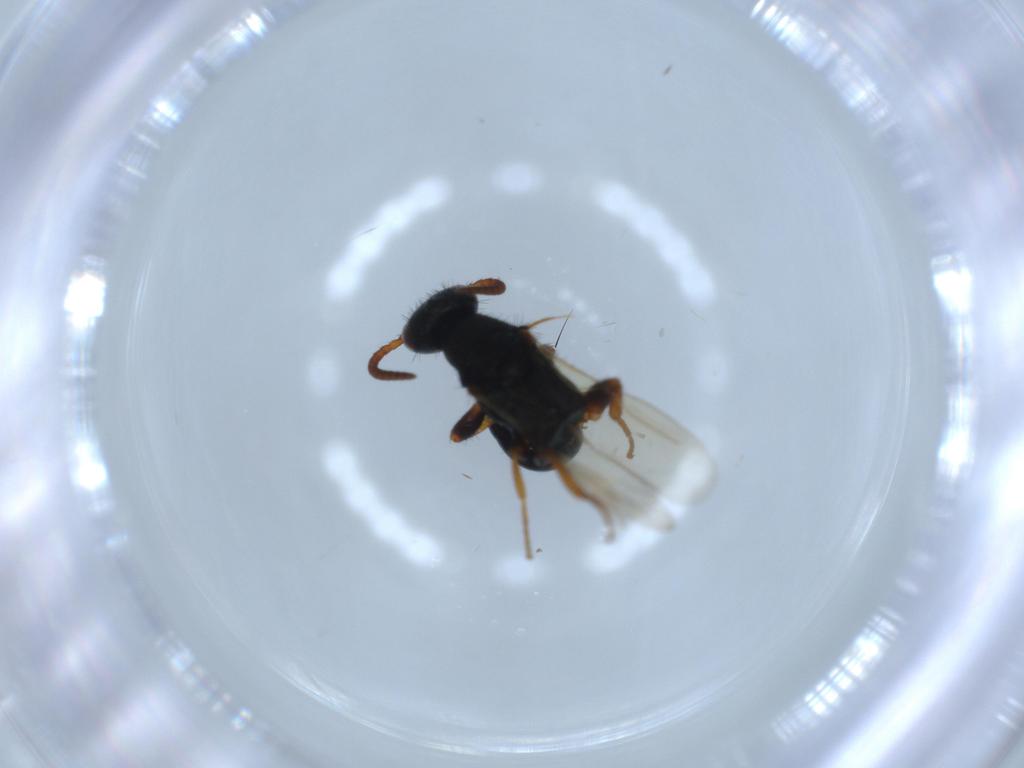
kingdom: Animalia
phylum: Arthropoda
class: Insecta
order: Hymenoptera
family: Bethylidae
